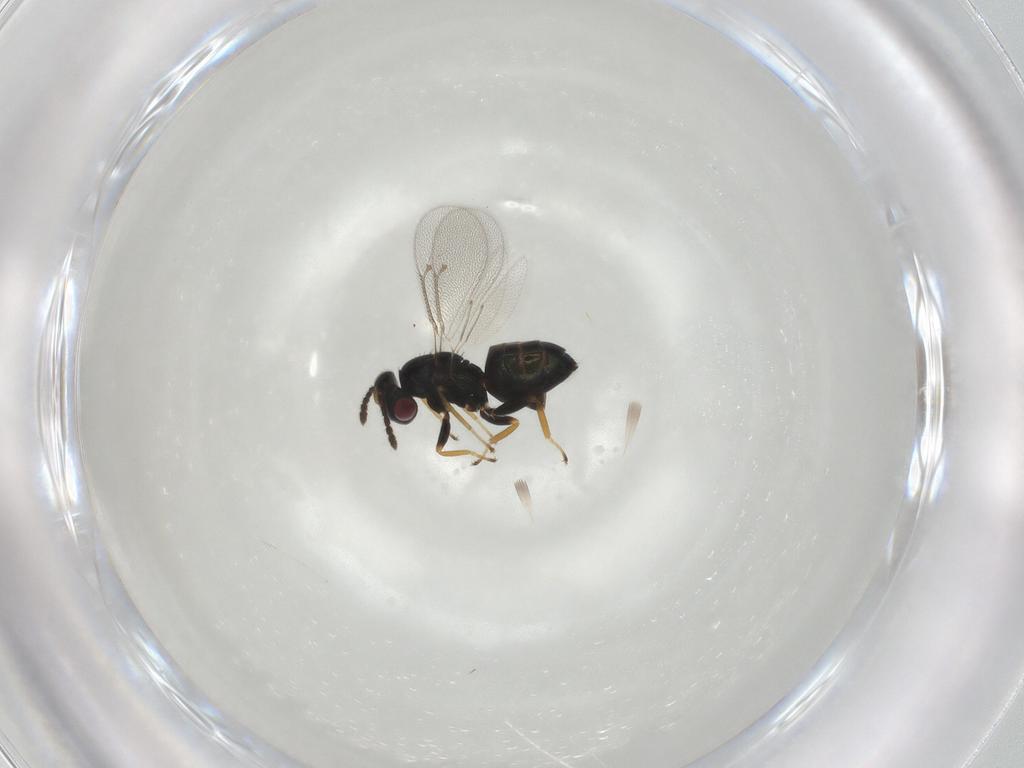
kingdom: Animalia
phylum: Arthropoda
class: Insecta
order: Hymenoptera
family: Eulophidae
